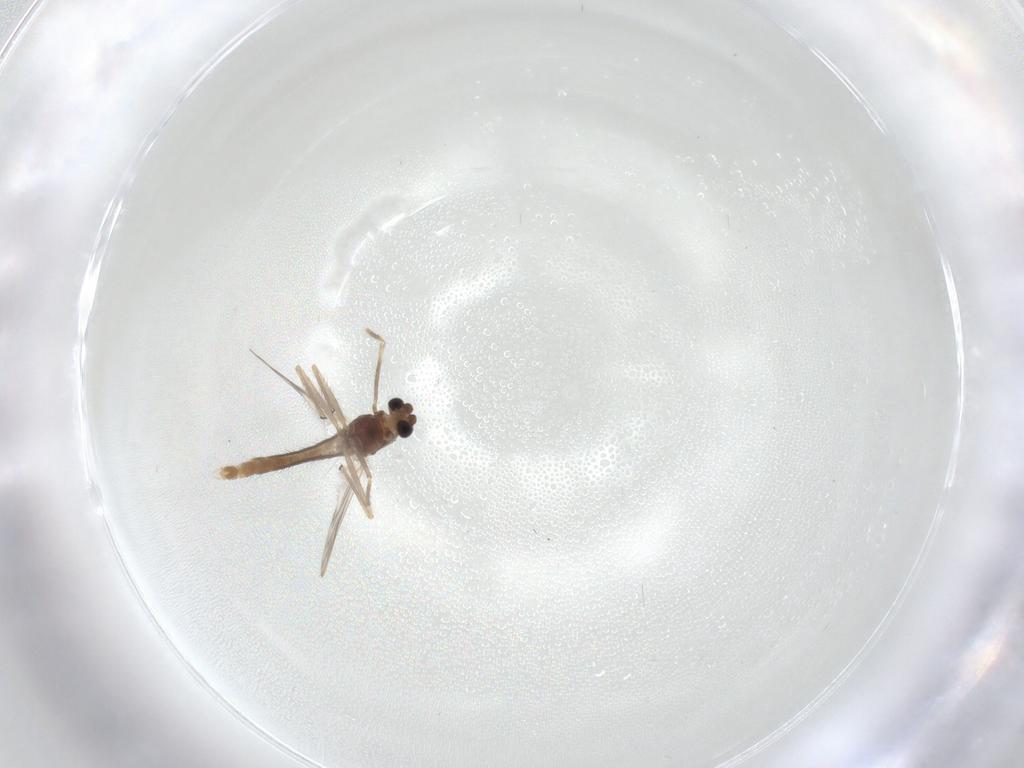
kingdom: Animalia
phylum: Arthropoda
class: Insecta
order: Diptera
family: Chironomidae
